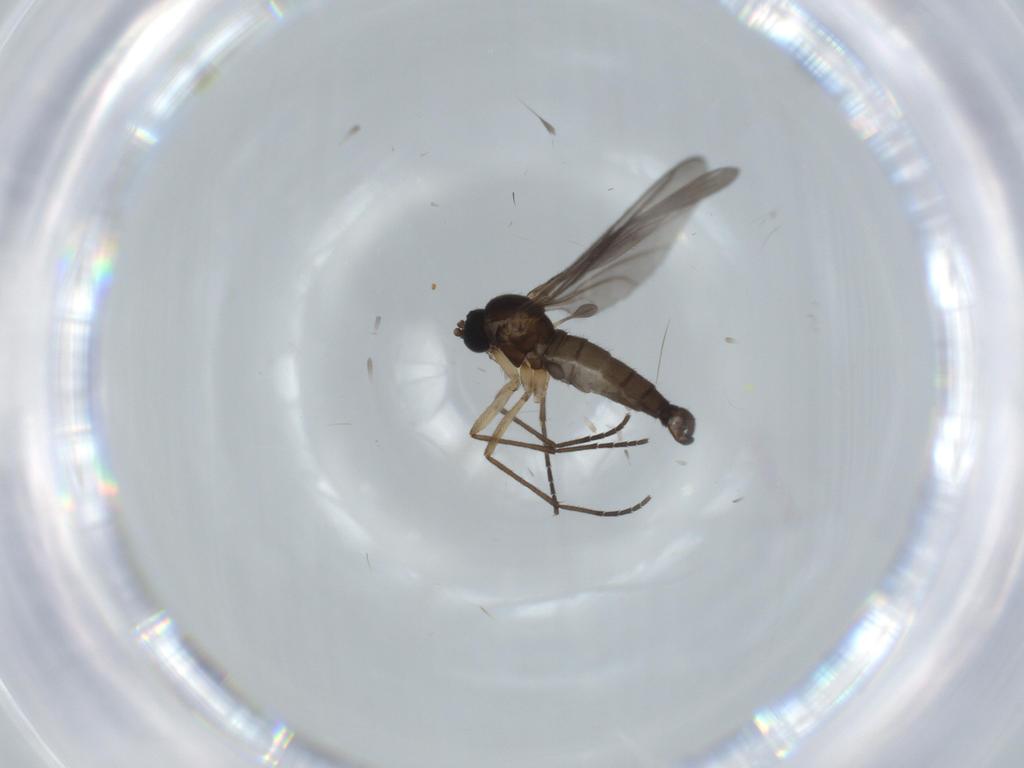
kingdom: Animalia
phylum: Arthropoda
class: Insecta
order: Diptera
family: Sciaridae
